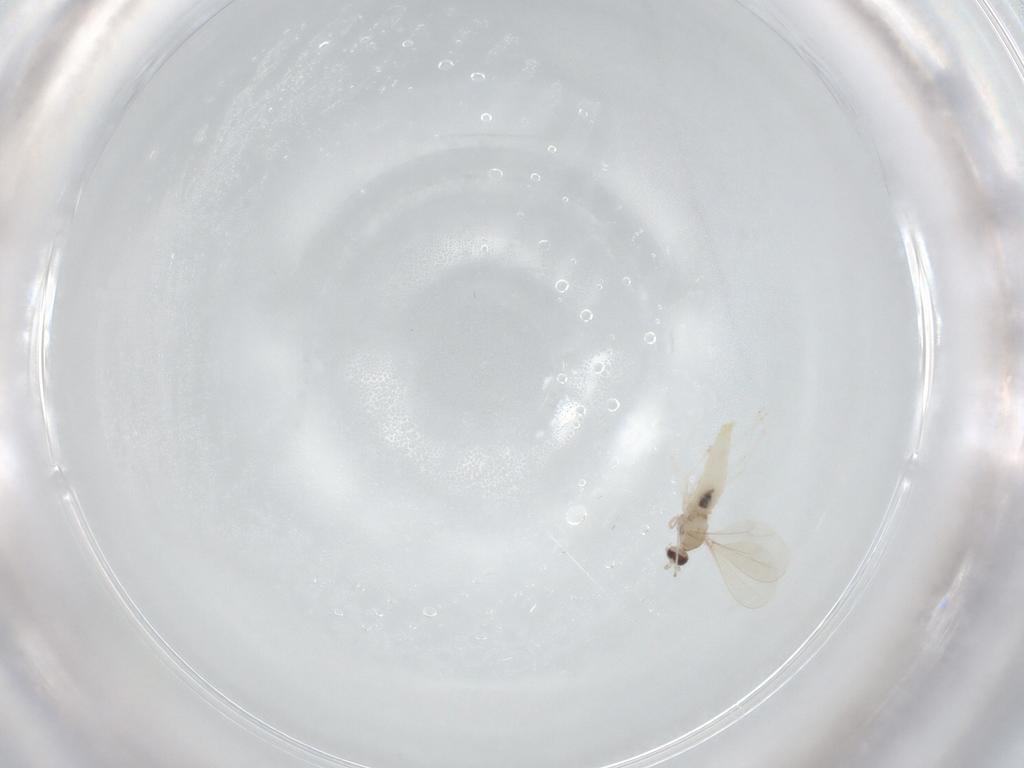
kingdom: Animalia
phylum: Arthropoda
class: Insecta
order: Diptera
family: Cecidomyiidae
